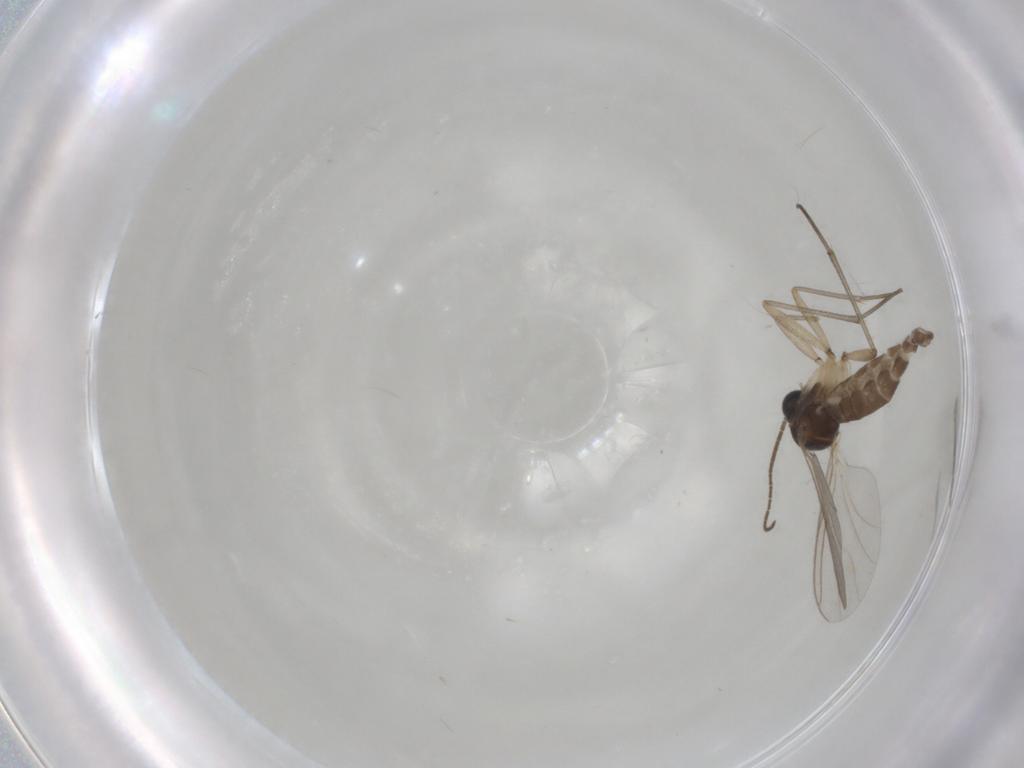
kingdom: Animalia
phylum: Arthropoda
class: Insecta
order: Diptera
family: Sciaridae
